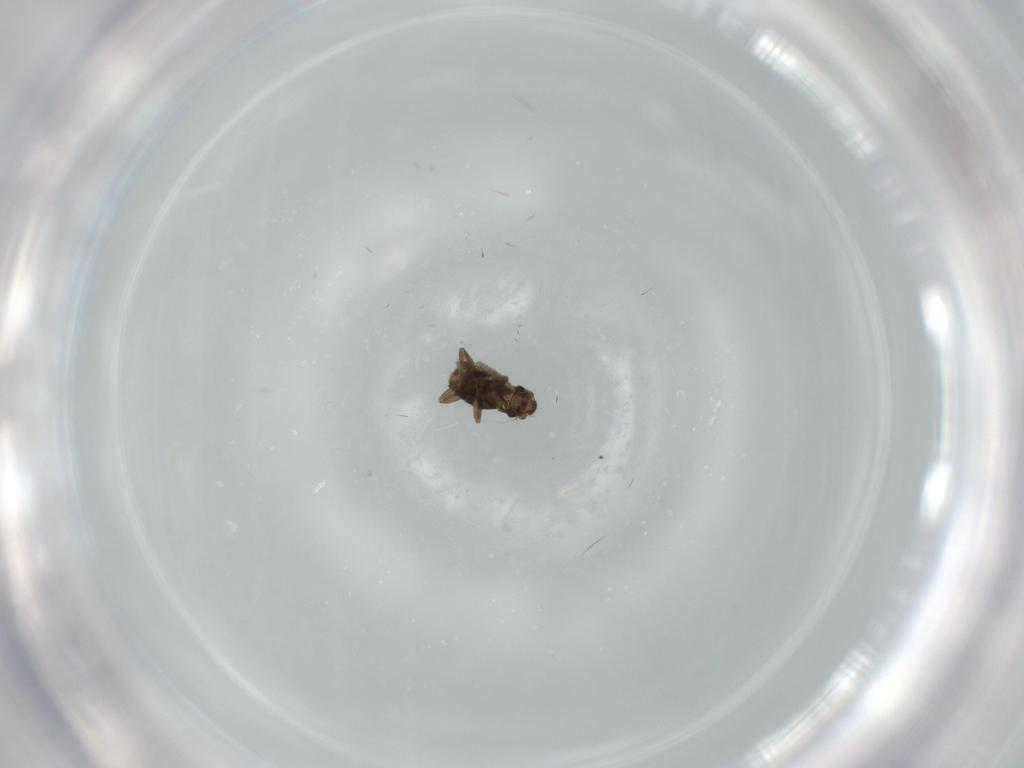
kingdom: Animalia
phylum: Arthropoda
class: Insecta
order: Diptera
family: Phoridae
